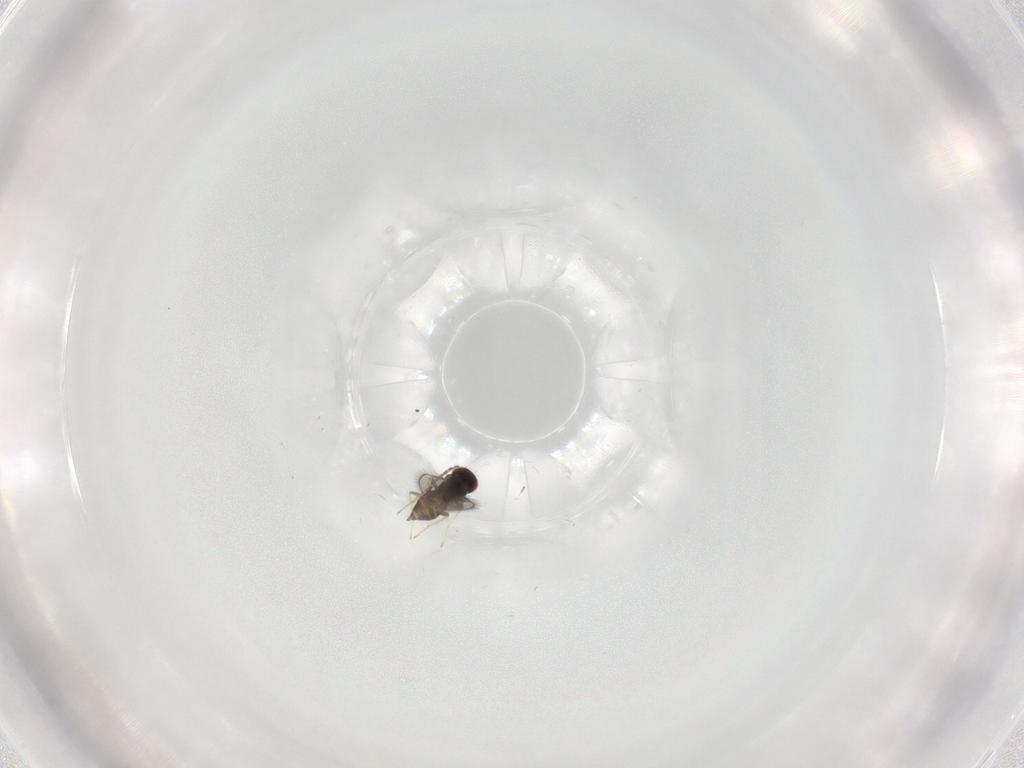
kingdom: Animalia
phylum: Arthropoda
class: Insecta
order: Hymenoptera
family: Eulophidae
